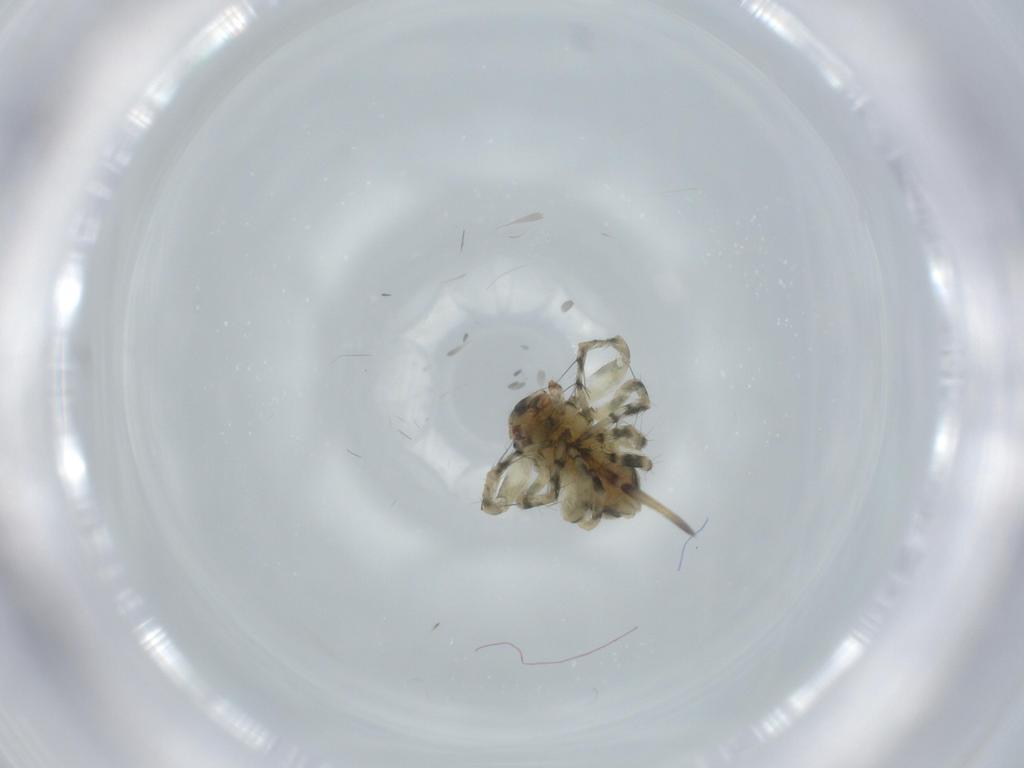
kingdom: Animalia
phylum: Arthropoda
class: Arachnida
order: Araneae
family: Oxyopidae
